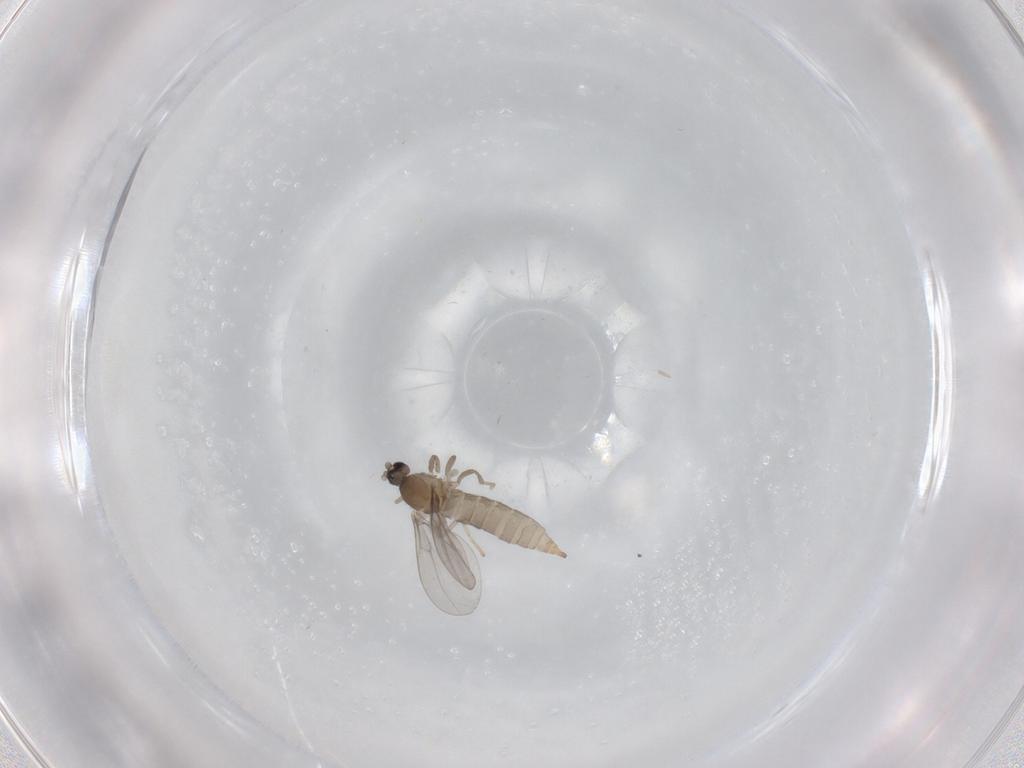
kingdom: Animalia
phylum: Arthropoda
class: Insecta
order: Diptera
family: Cecidomyiidae
